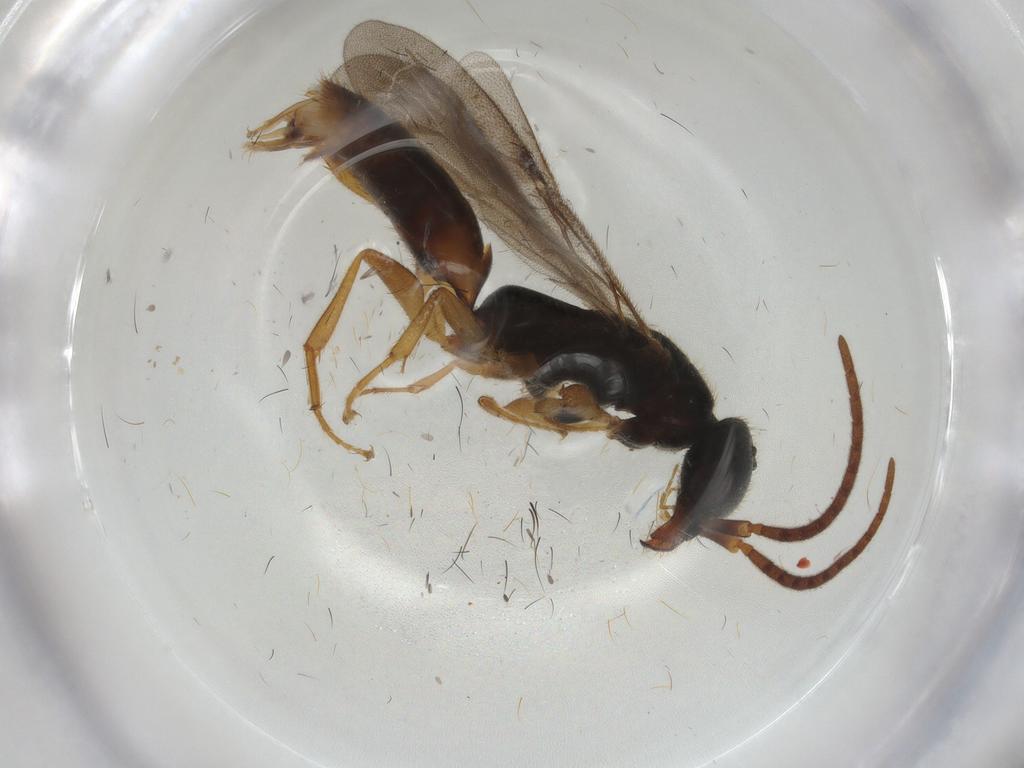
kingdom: Animalia
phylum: Arthropoda
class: Insecta
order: Hymenoptera
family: Bethylidae
